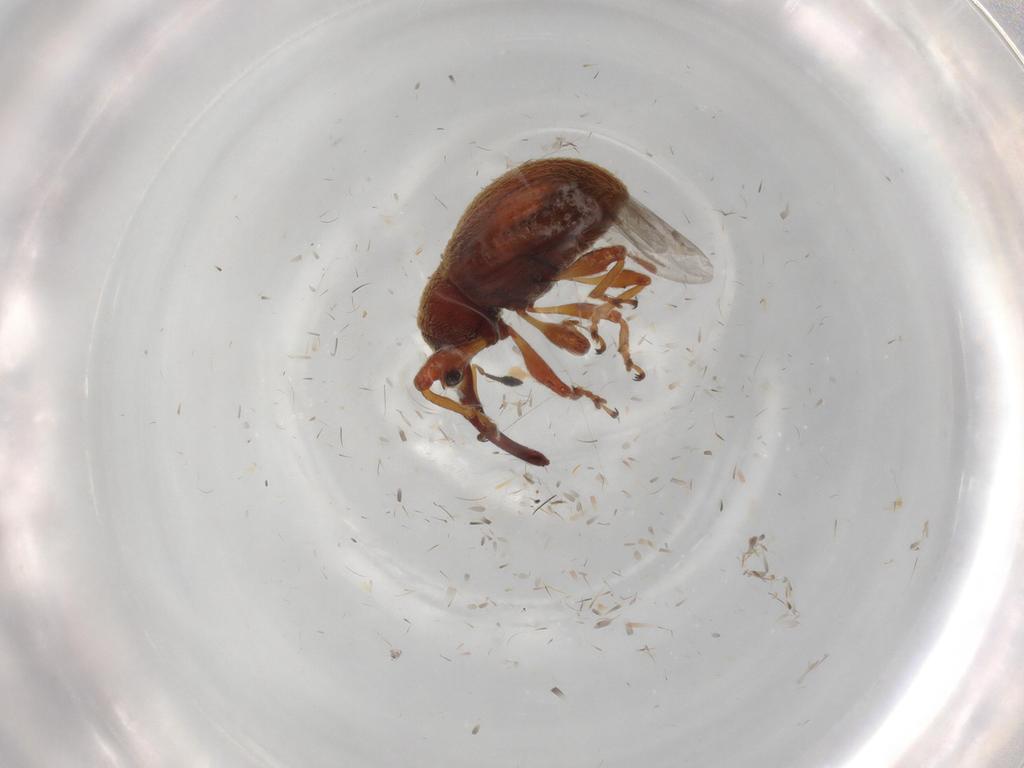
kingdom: Animalia
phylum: Arthropoda
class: Insecta
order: Coleoptera
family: Curculionidae
